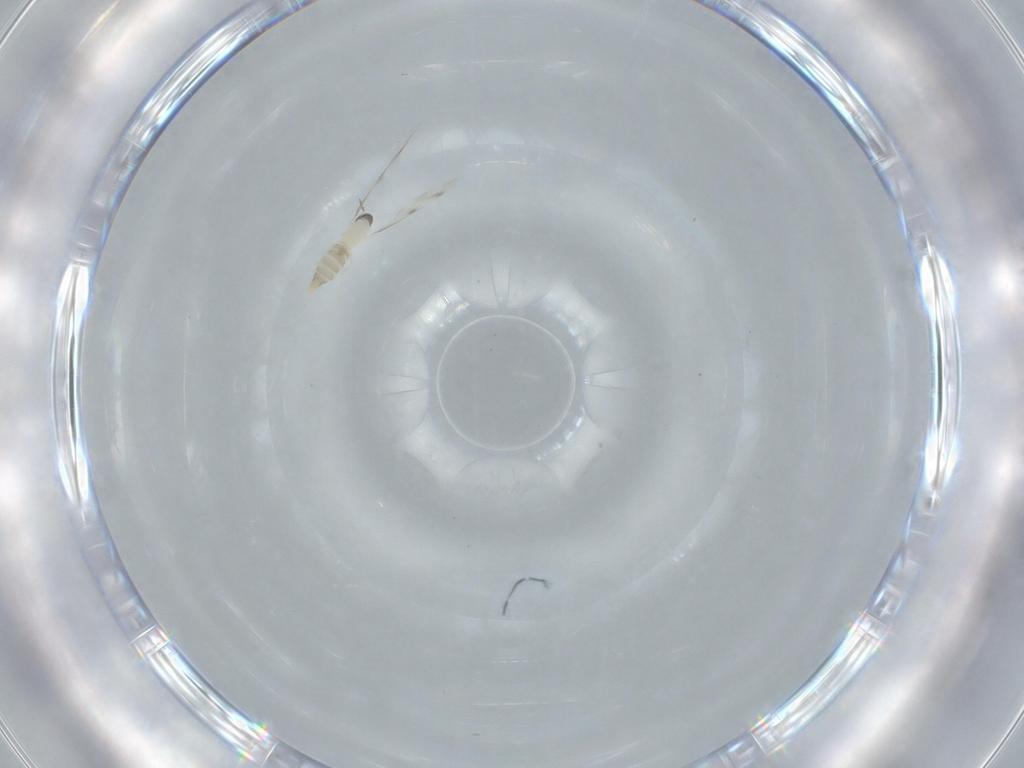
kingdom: Animalia
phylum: Arthropoda
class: Insecta
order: Diptera
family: Cecidomyiidae
